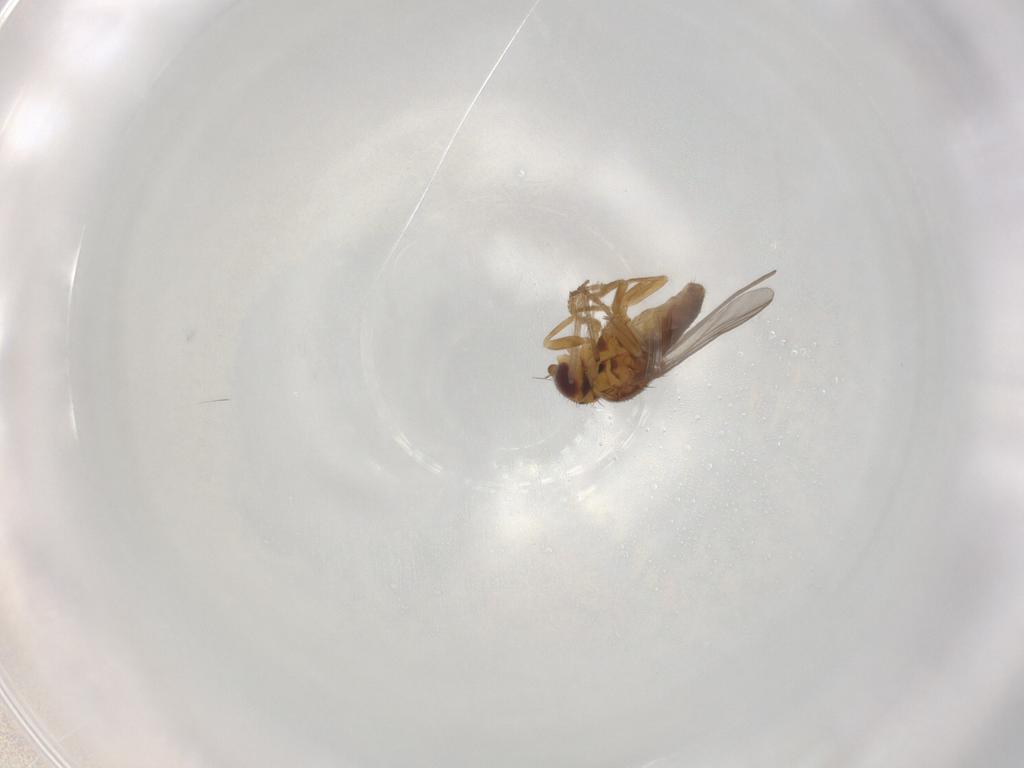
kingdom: Animalia
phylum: Arthropoda
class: Insecta
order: Diptera
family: Chloropidae
